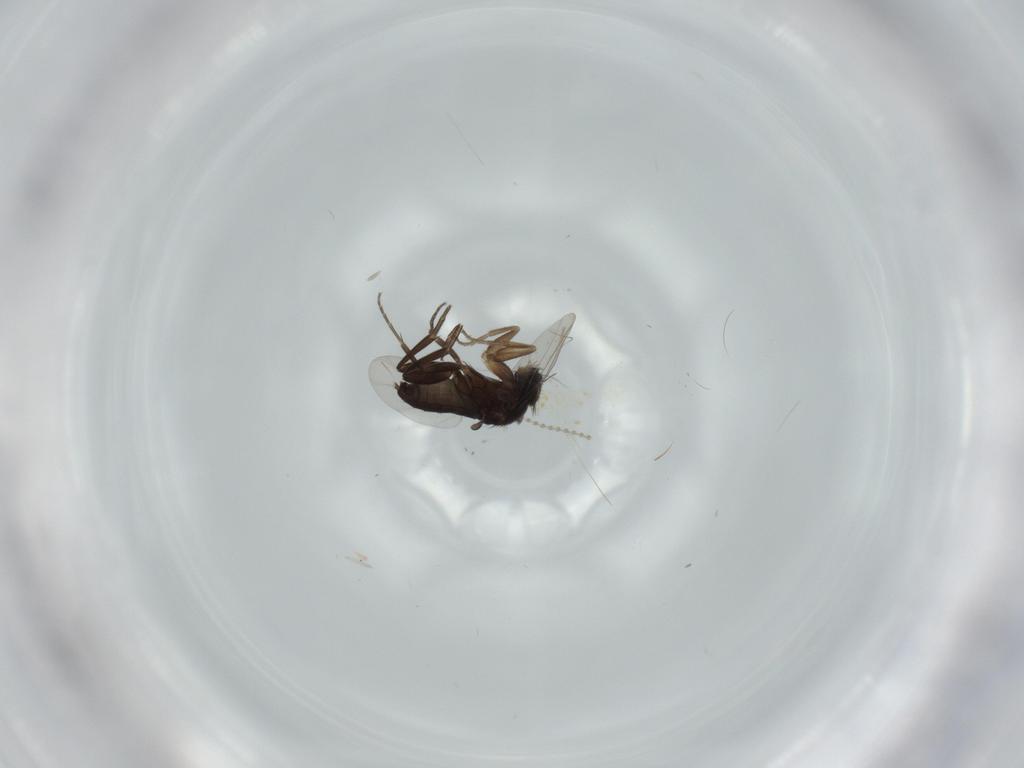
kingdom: Animalia
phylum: Arthropoda
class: Insecta
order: Diptera
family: Cecidomyiidae
